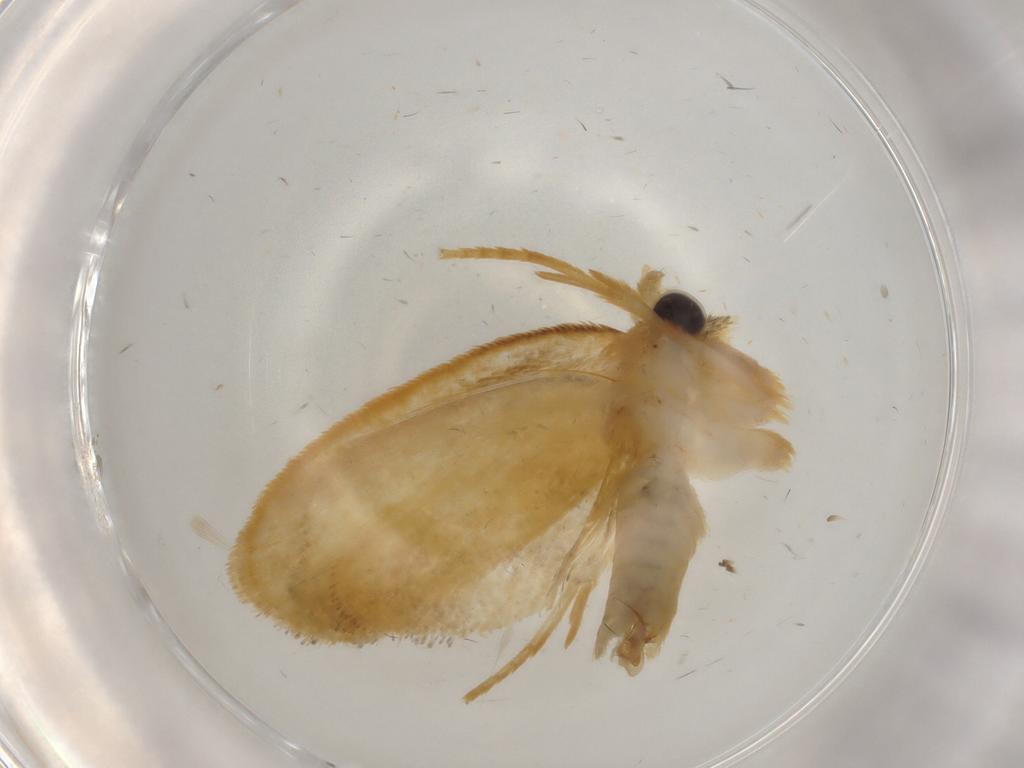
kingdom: Animalia
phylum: Arthropoda
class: Insecta
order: Lepidoptera
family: Psychidae
